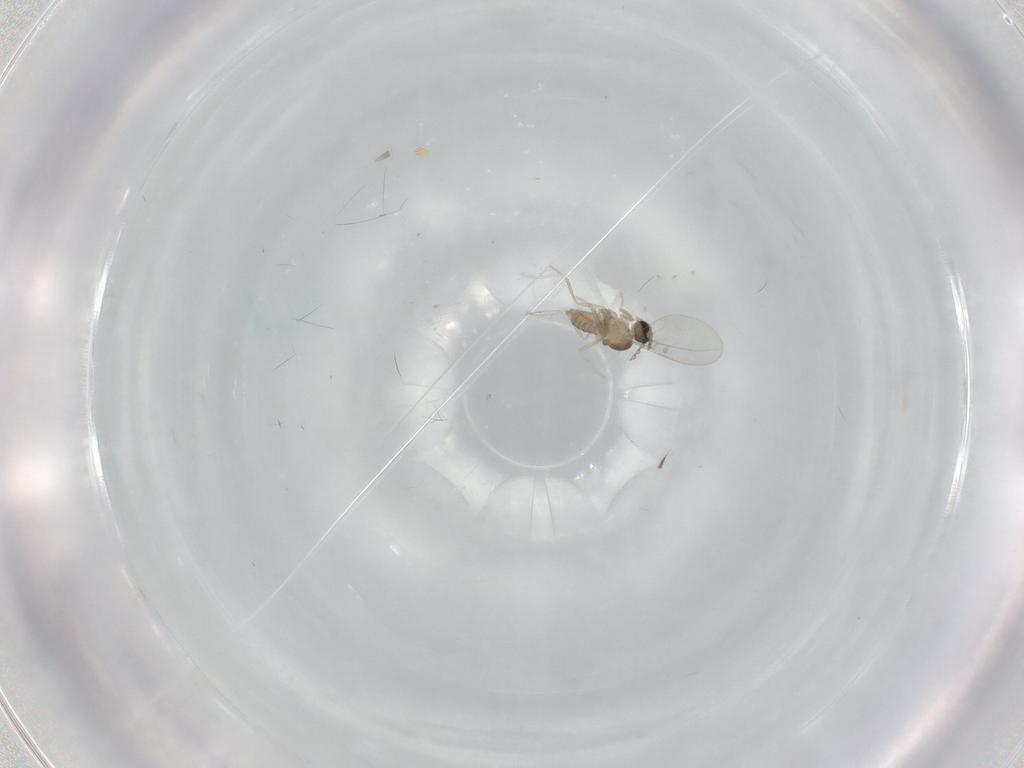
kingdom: Animalia
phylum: Arthropoda
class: Insecta
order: Diptera
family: Cecidomyiidae
